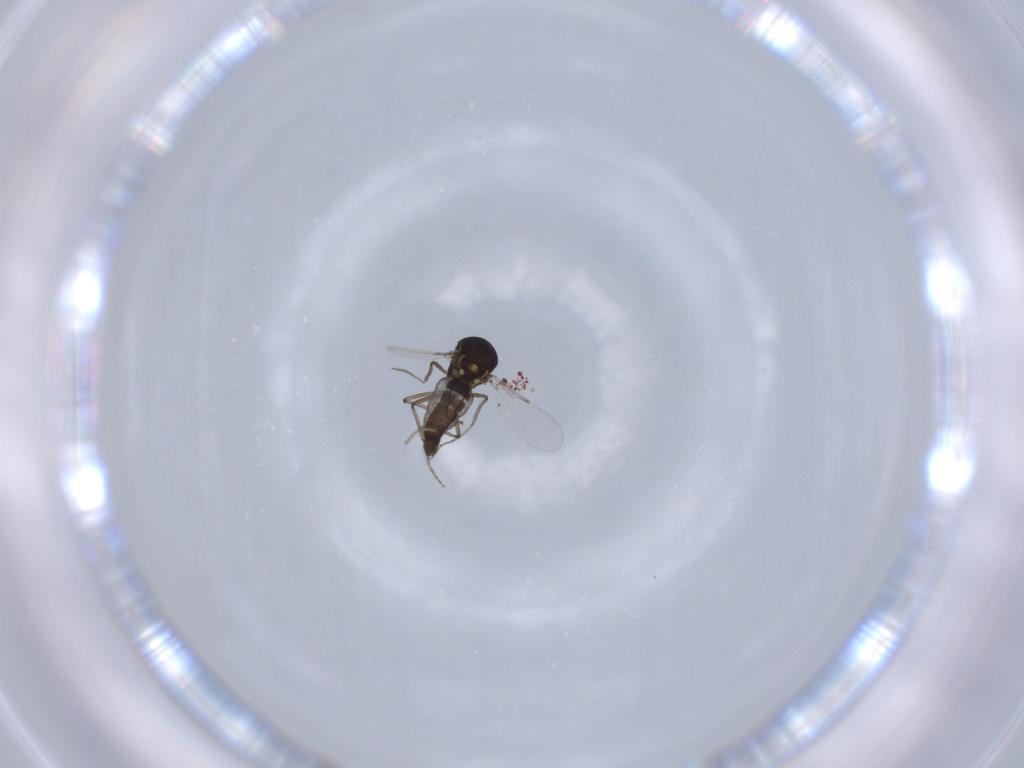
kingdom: Animalia
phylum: Arthropoda
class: Insecta
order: Diptera
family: Ceratopogonidae
